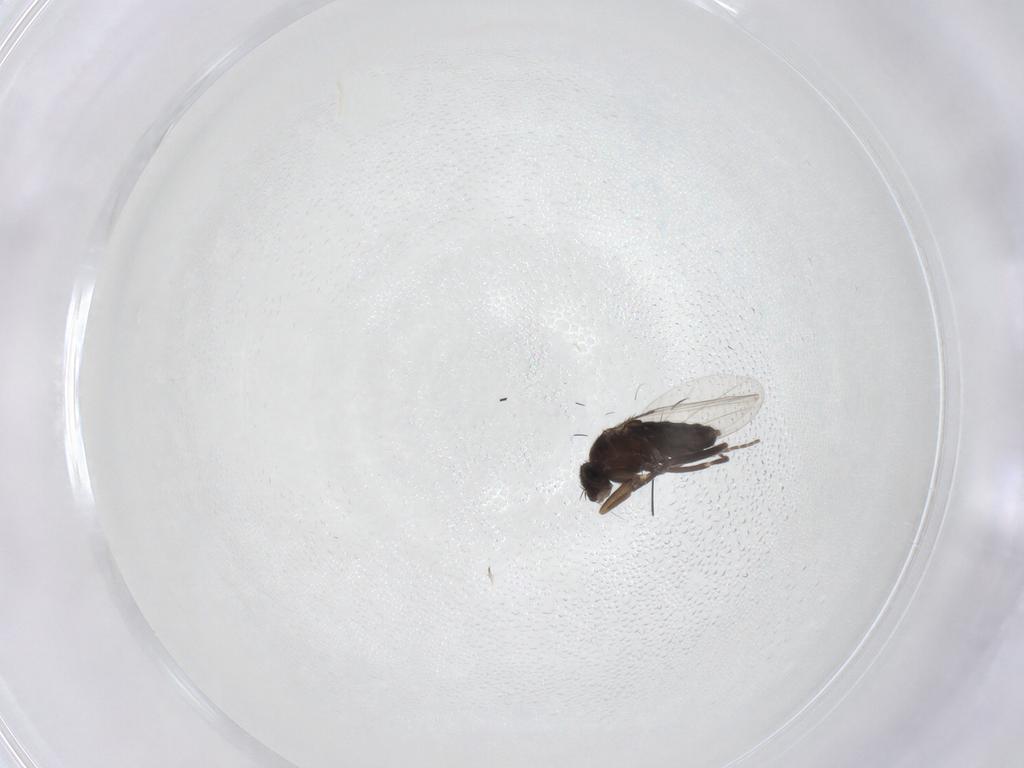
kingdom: Animalia
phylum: Arthropoda
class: Insecta
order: Diptera
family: Phoridae
